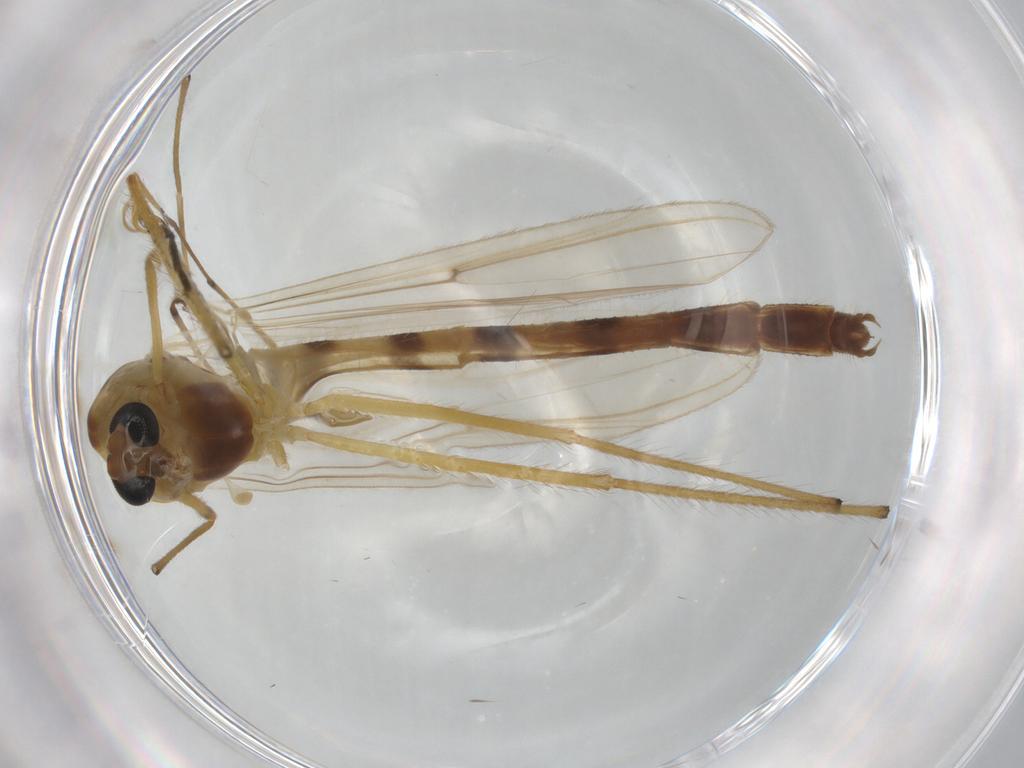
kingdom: Animalia
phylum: Arthropoda
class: Insecta
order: Diptera
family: Chironomidae
